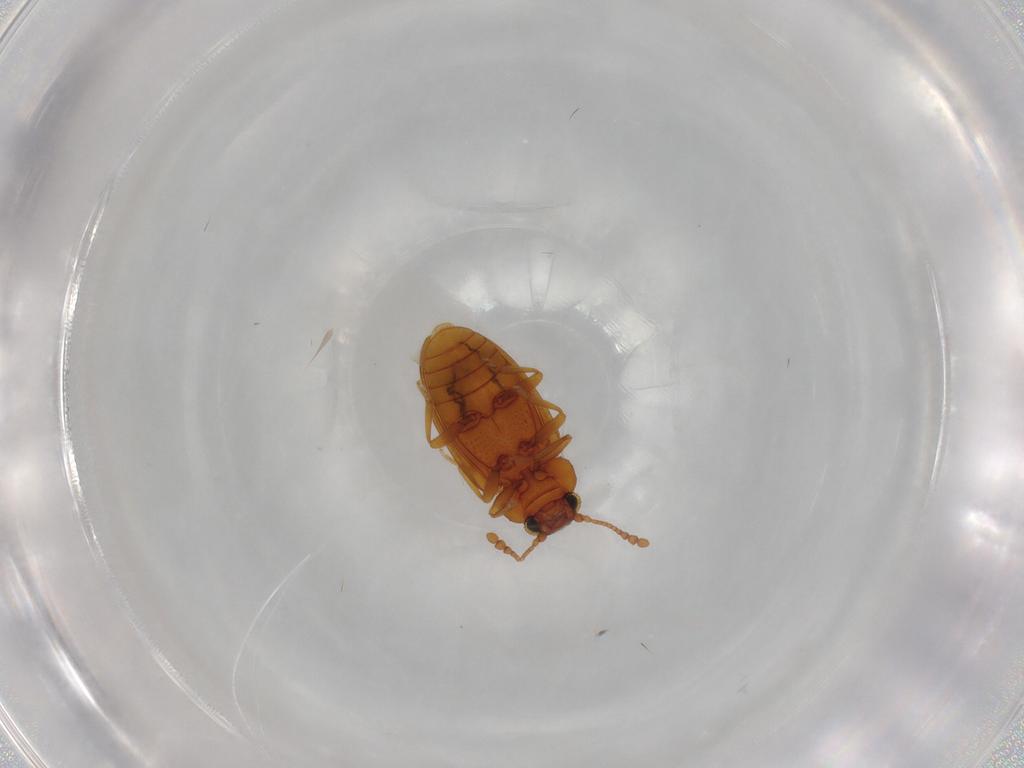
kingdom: Animalia
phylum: Arthropoda
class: Insecta
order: Coleoptera
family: Erotylidae
